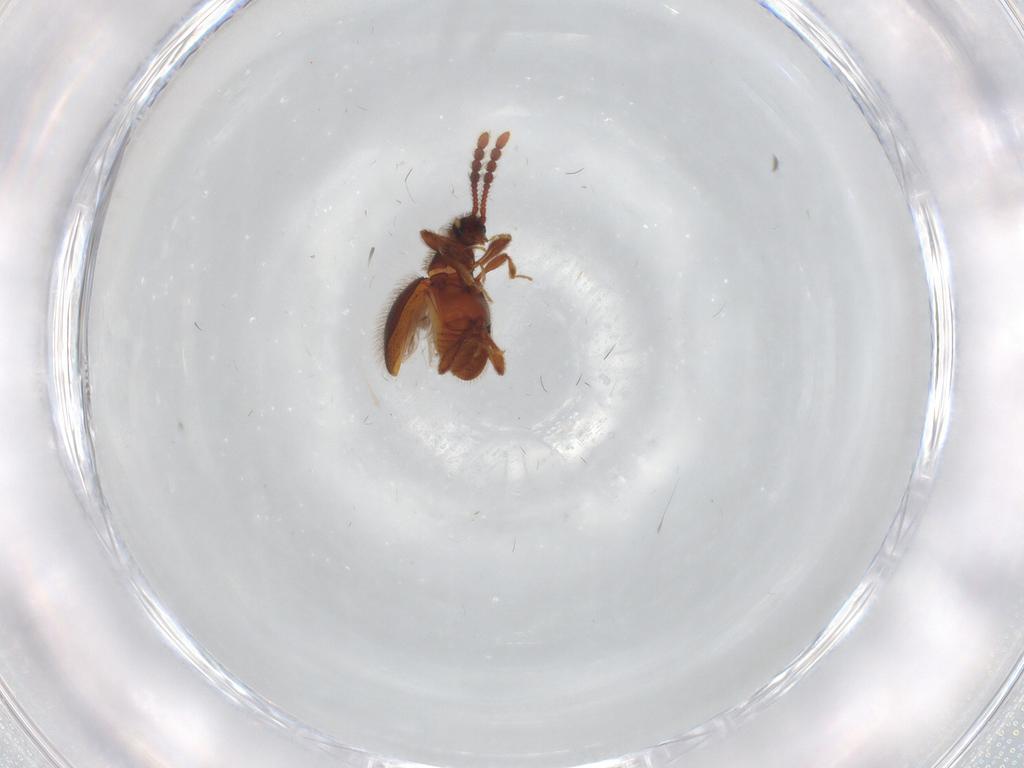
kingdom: Animalia
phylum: Arthropoda
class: Insecta
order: Coleoptera
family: Staphylinidae
